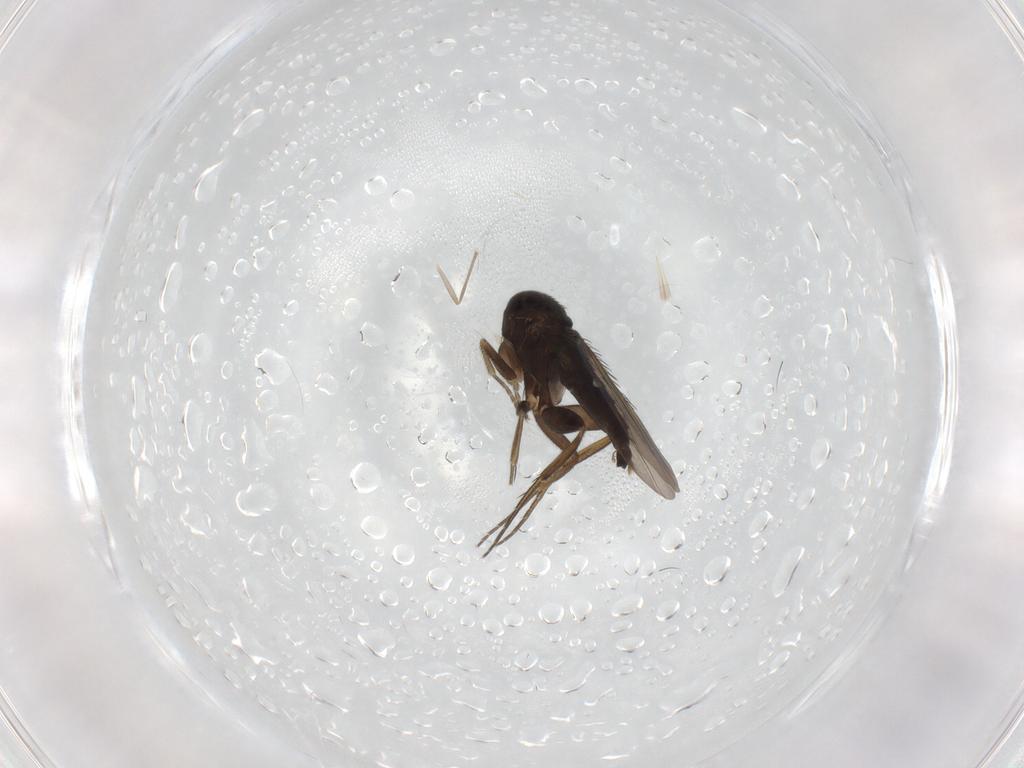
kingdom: Animalia
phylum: Arthropoda
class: Insecta
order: Diptera
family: Phoridae
